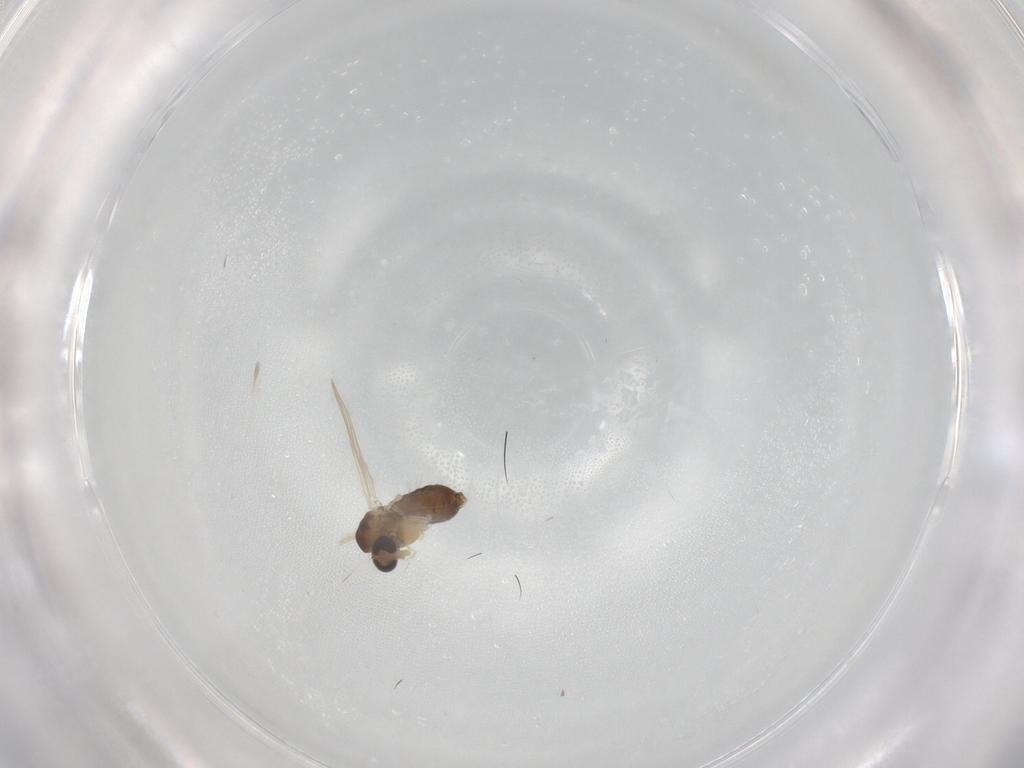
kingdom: Animalia
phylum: Arthropoda
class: Insecta
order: Diptera
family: Chironomidae
